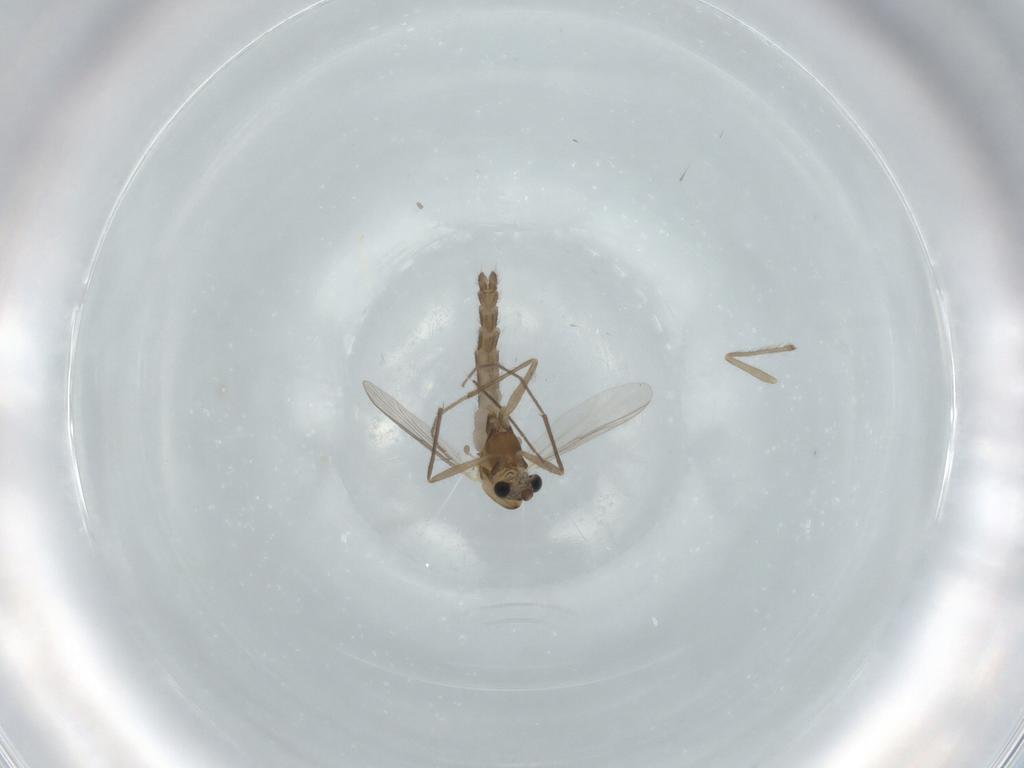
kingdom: Animalia
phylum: Arthropoda
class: Insecta
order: Diptera
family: Chironomidae
